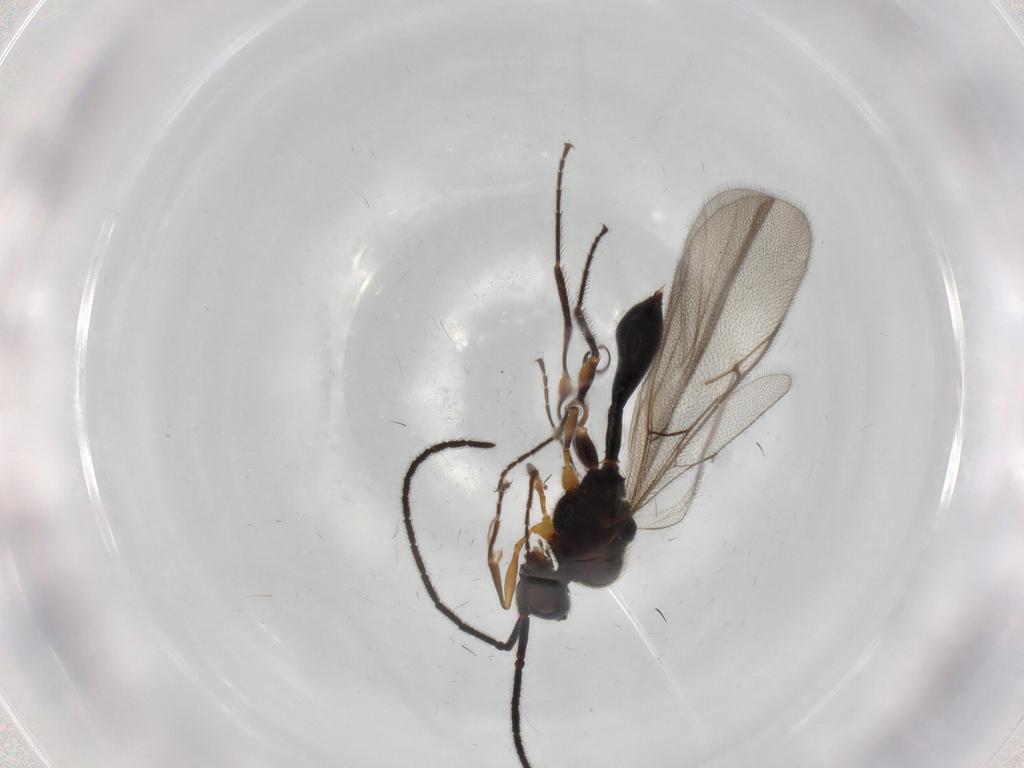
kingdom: Animalia
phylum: Arthropoda
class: Insecta
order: Hymenoptera
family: Diapriidae
